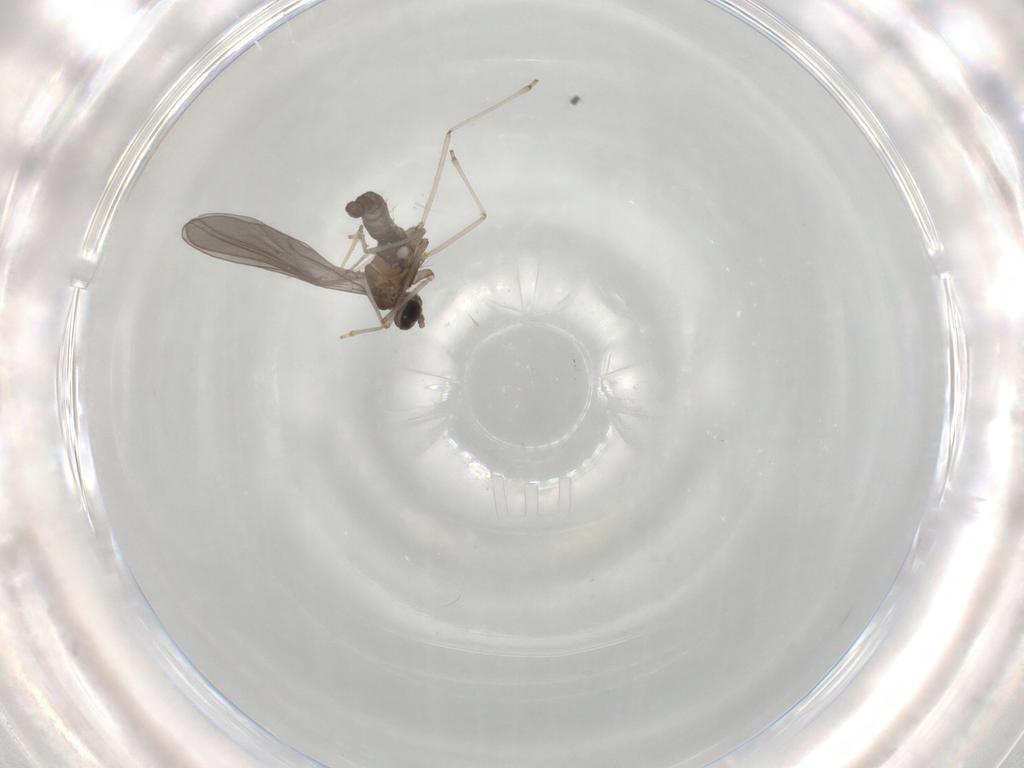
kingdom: Animalia
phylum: Arthropoda
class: Insecta
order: Diptera
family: Cecidomyiidae
